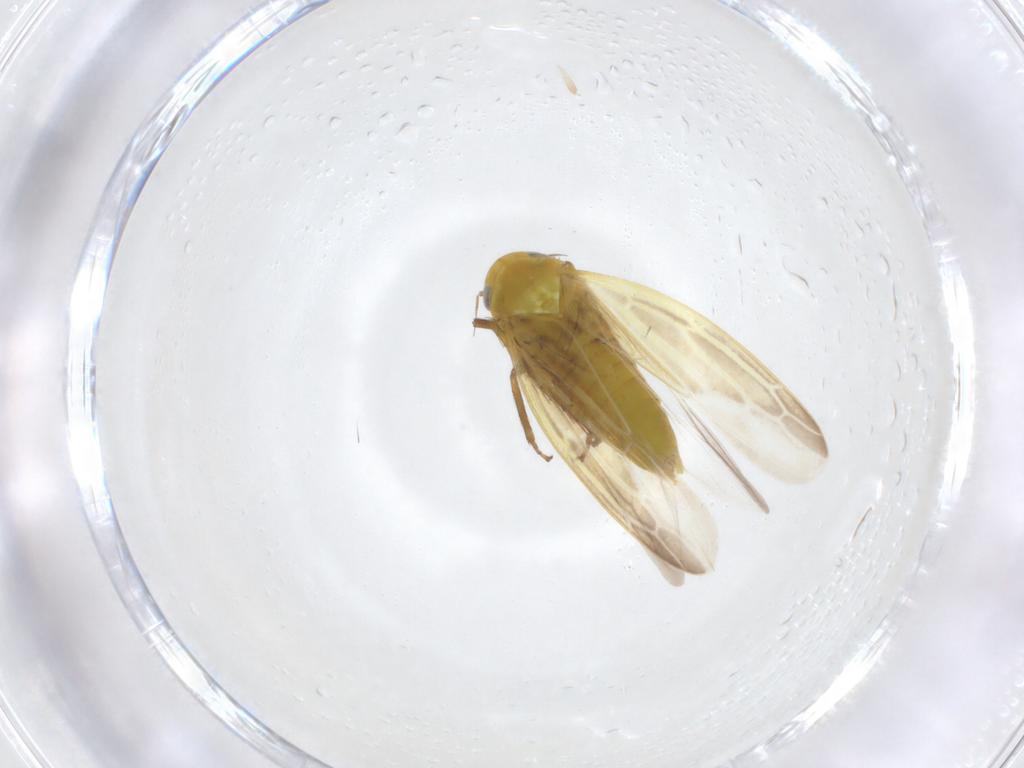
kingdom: Animalia
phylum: Arthropoda
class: Insecta
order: Hemiptera
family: Cicadellidae
